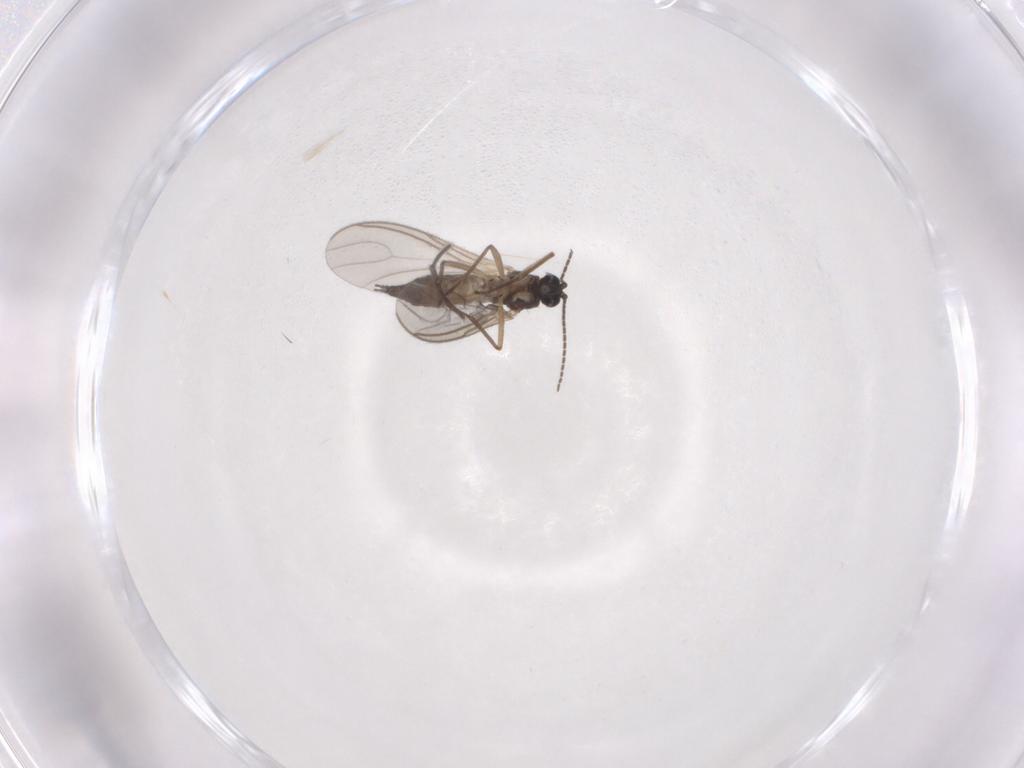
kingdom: Animalia
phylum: Arthropoda
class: Insecta
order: Diptera
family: Sciaridae
